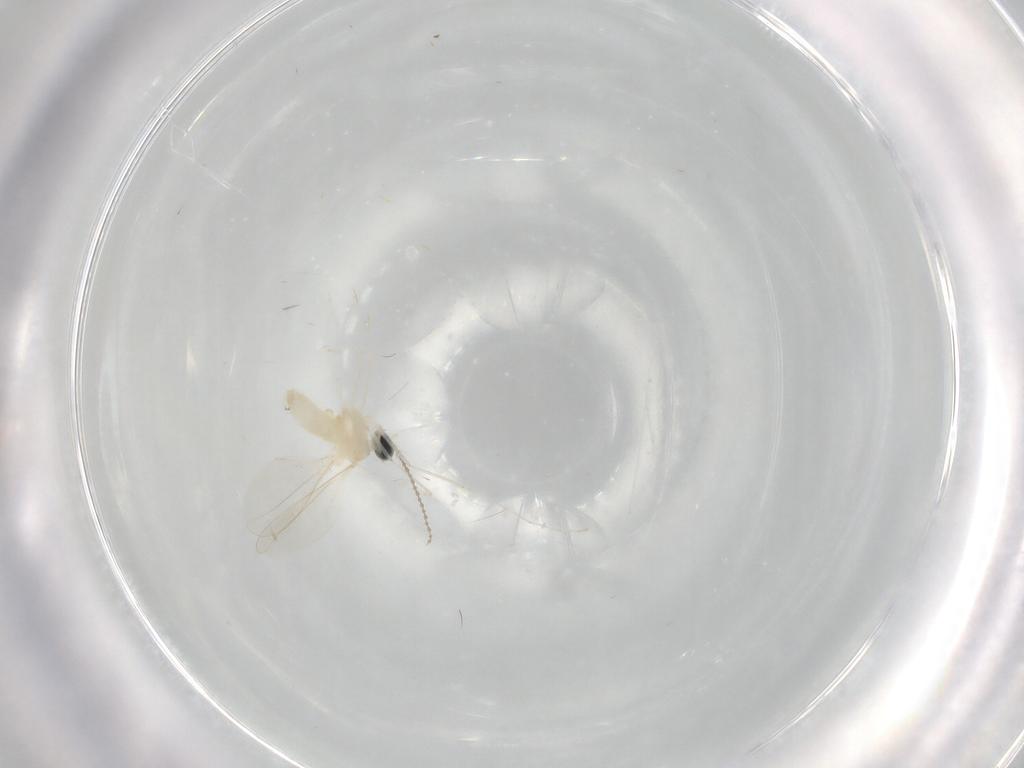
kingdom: Animalia
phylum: Arthropoda
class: Insecta
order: Diptera
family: Cecidomyiidae
